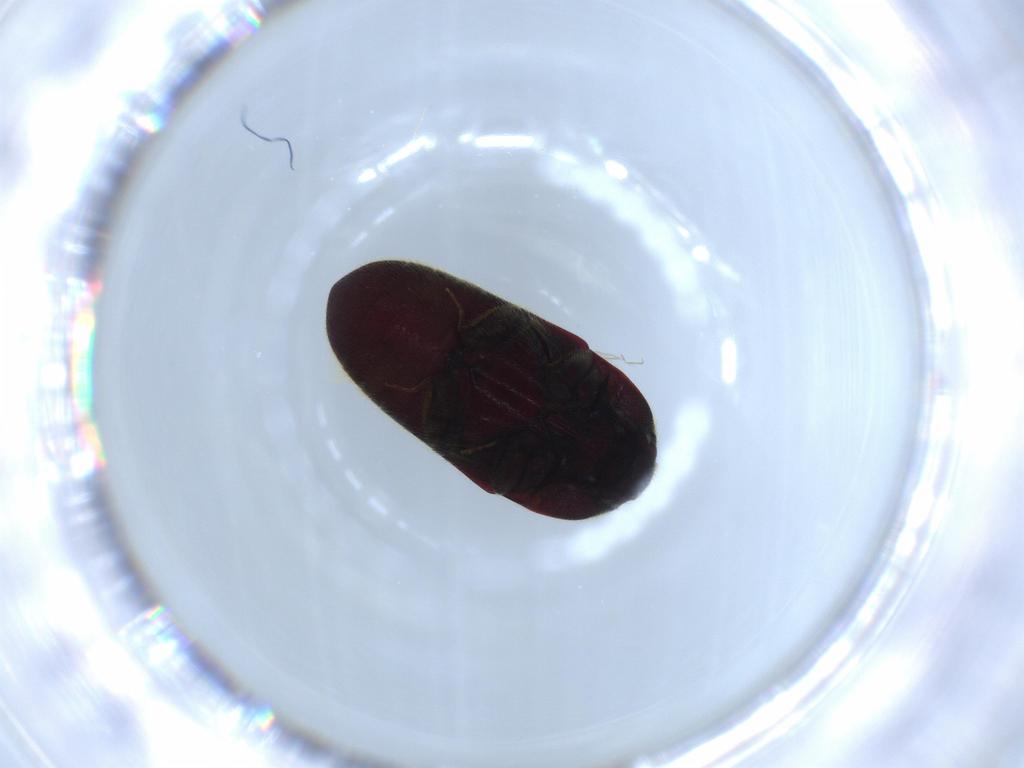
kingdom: Animalia
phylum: Arthropoda
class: Insecta
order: Coleoptera
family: Throscidae
